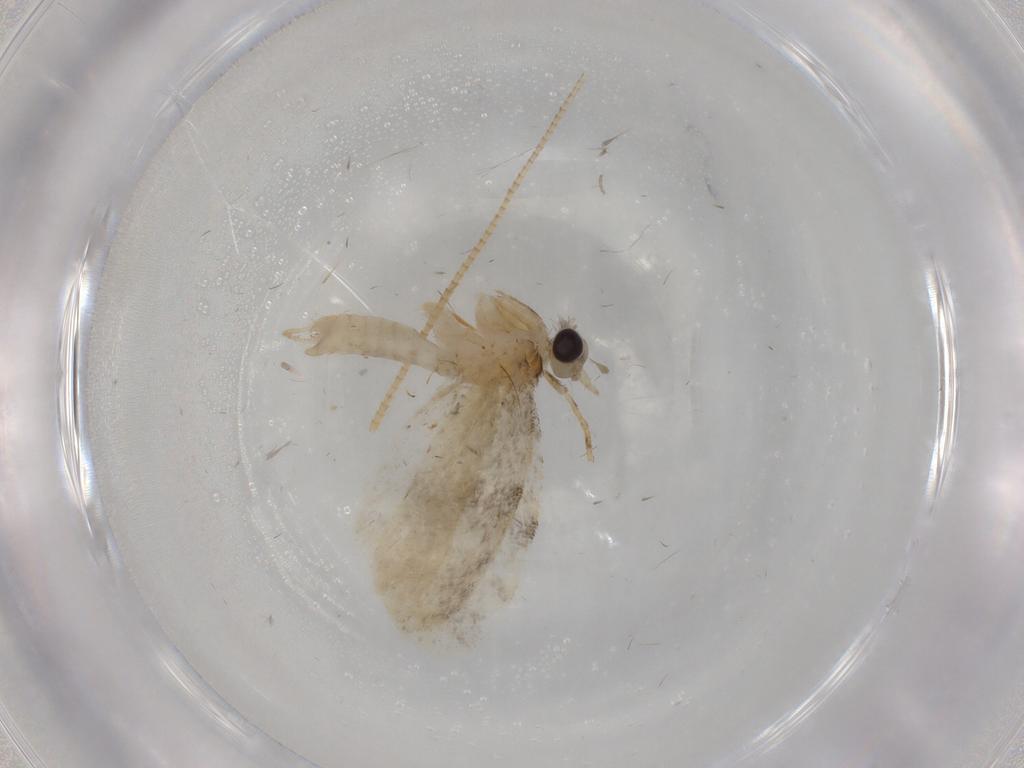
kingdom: Animalia
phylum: Arthropoda
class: Insecta
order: Lepidoptera
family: Psychidae
